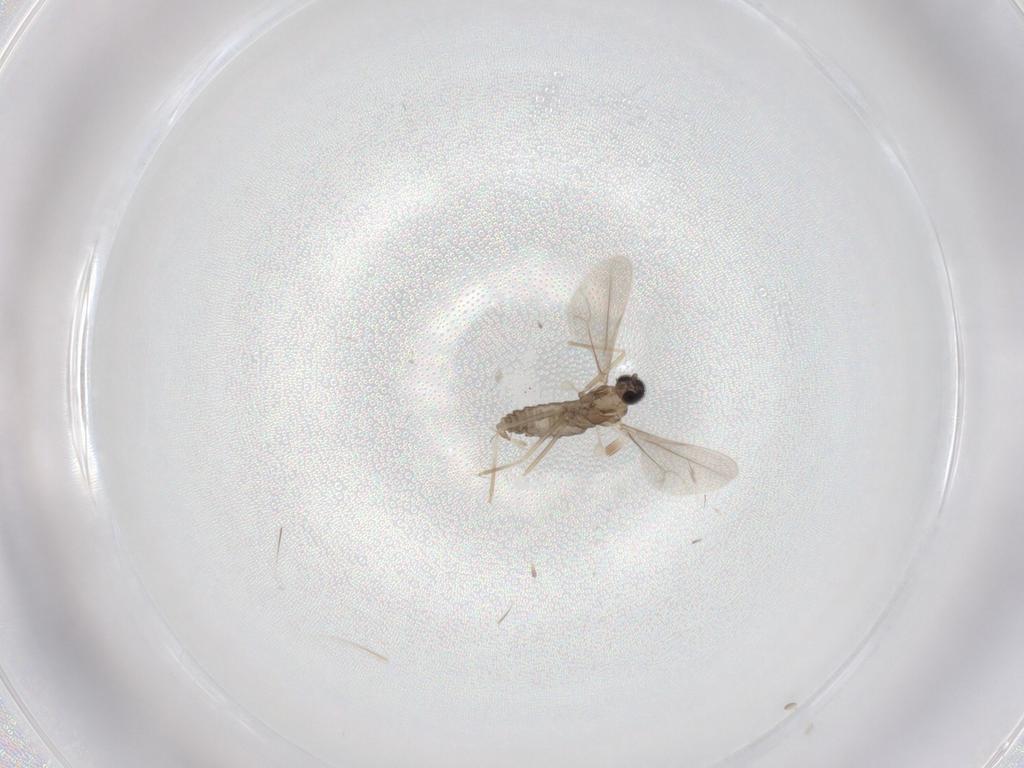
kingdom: Animalia
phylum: Arthropoda
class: Insecta
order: Diptera
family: Cecidomyiidae
